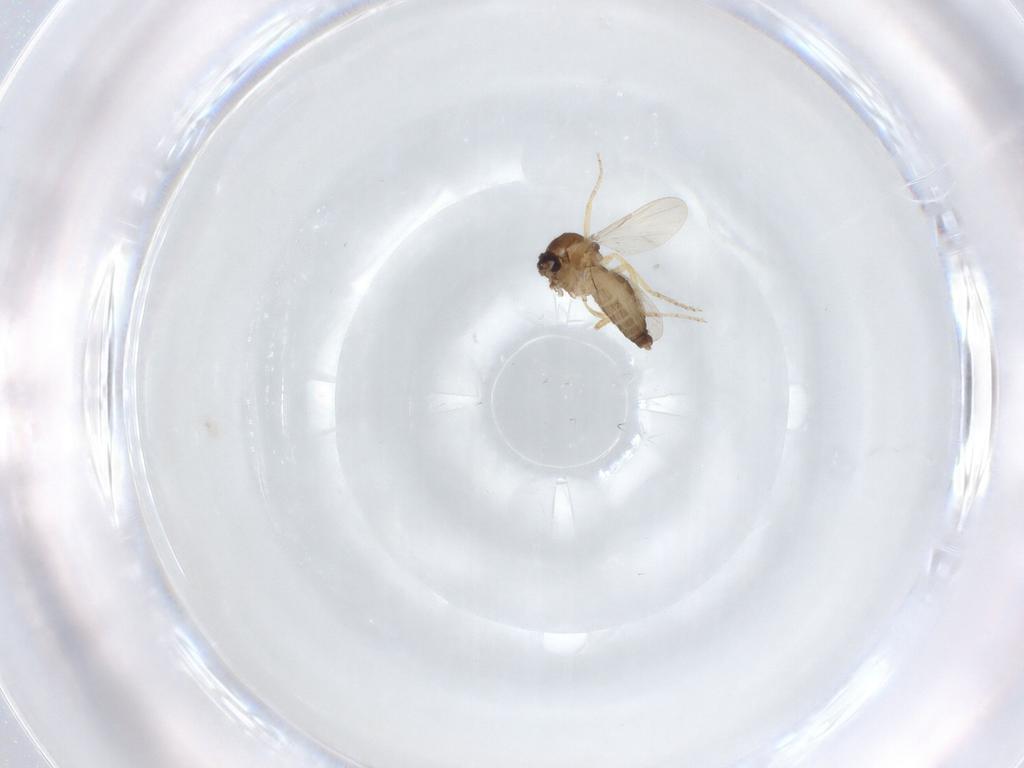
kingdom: Animalia
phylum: Arthropoda
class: Insecta
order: Diptera
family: Ceratopogonidae
